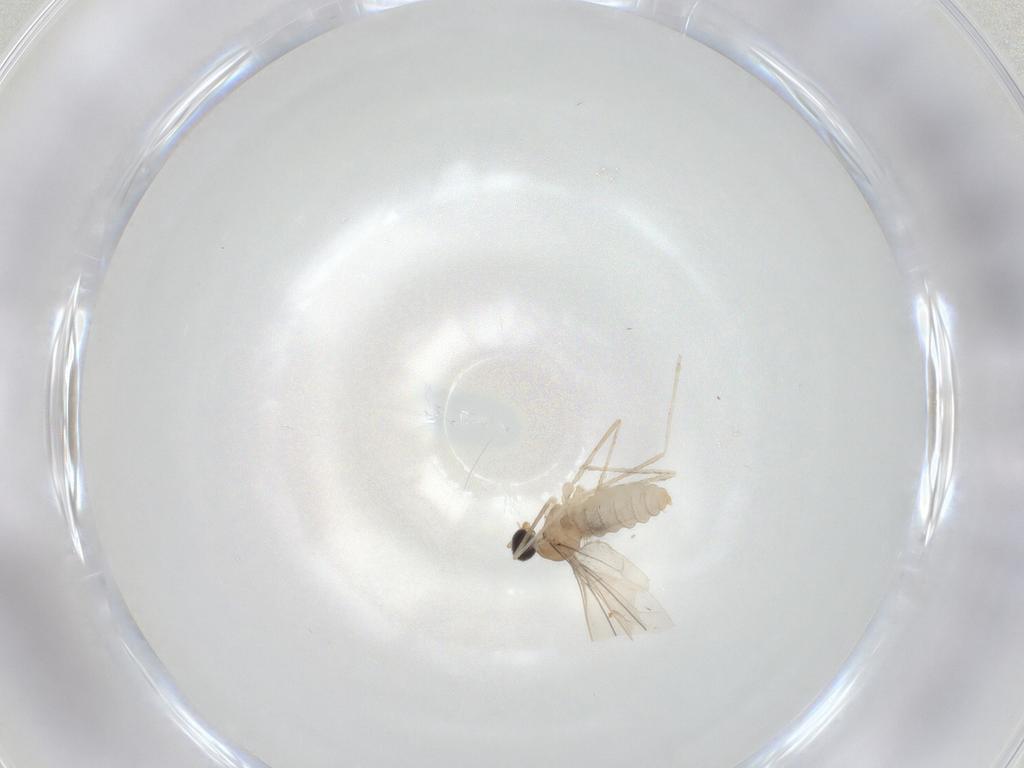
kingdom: Animalia
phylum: Arthropoda
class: Insecta
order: Diptera
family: Cecidomyiidae
